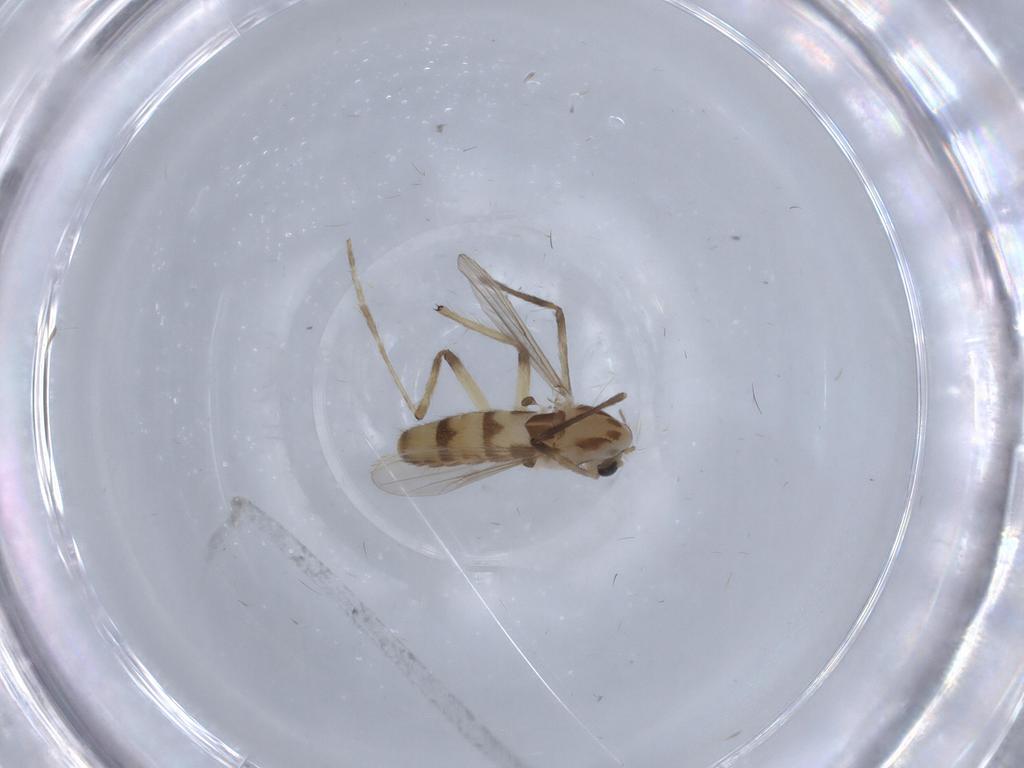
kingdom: Animalia
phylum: Arthropoda
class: Insecta
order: Diptera
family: Chironomidae
